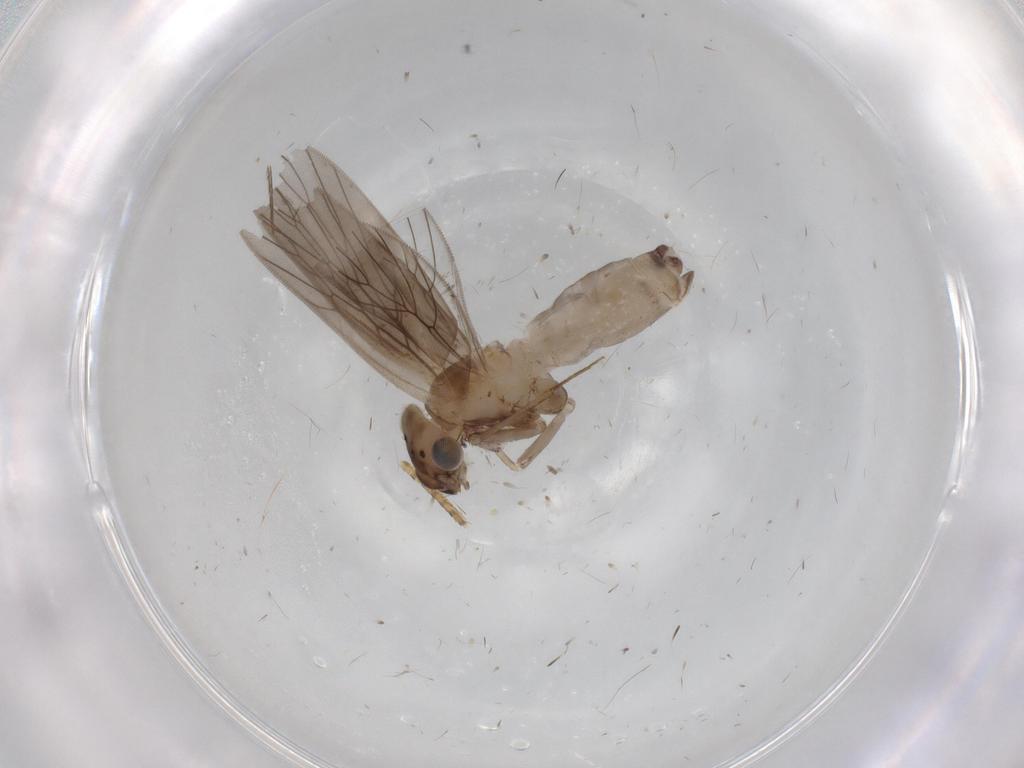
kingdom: Animalia
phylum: Arthropoda
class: Insecta
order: Psocodea
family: Lepidopsocidae
